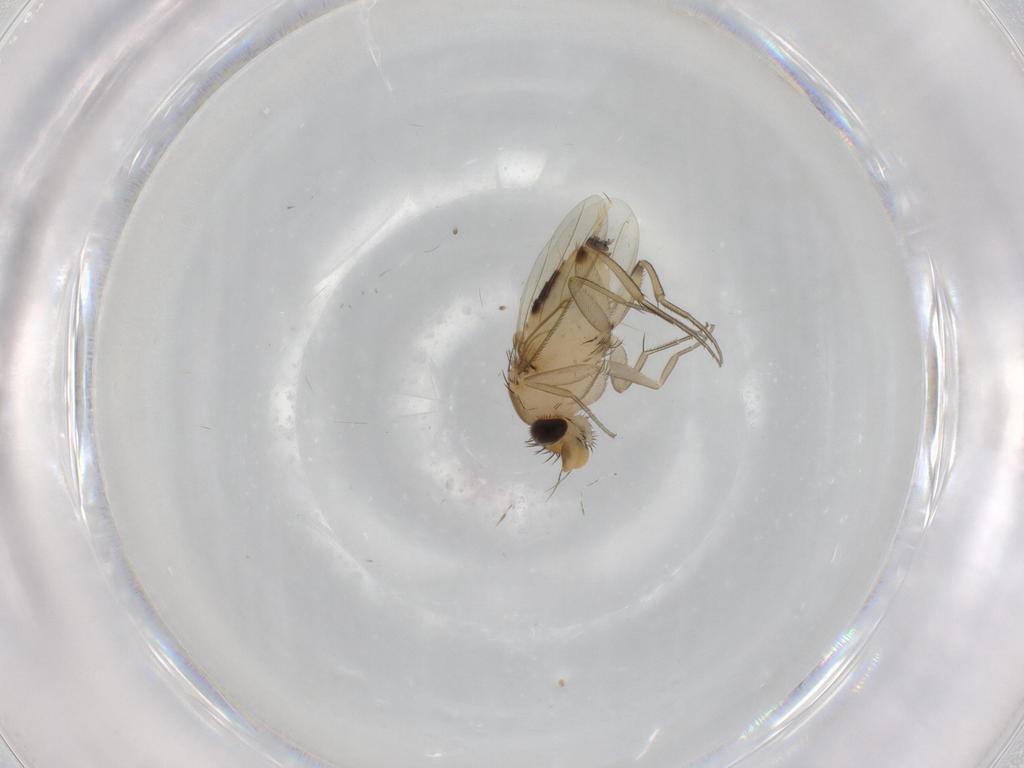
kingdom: Animalia
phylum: Arthropoda
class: Insecta
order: Diptera
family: Phoridae
